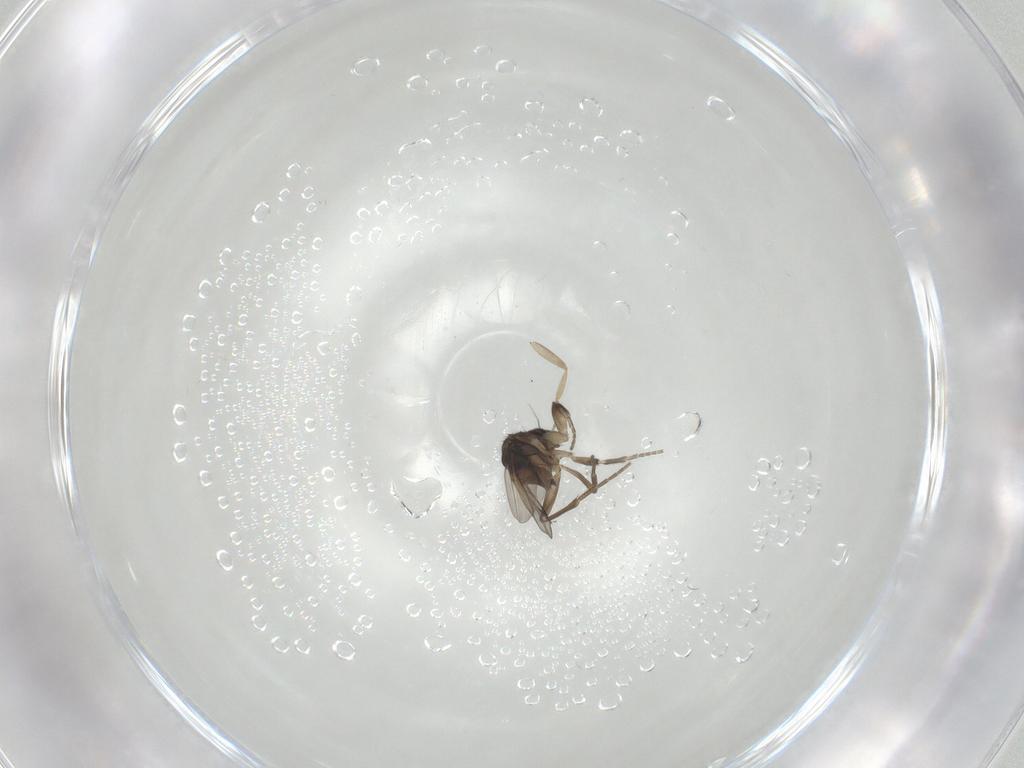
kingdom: Animalia
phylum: Arthropoda
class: Insecta
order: Diptera
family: Phoridae
